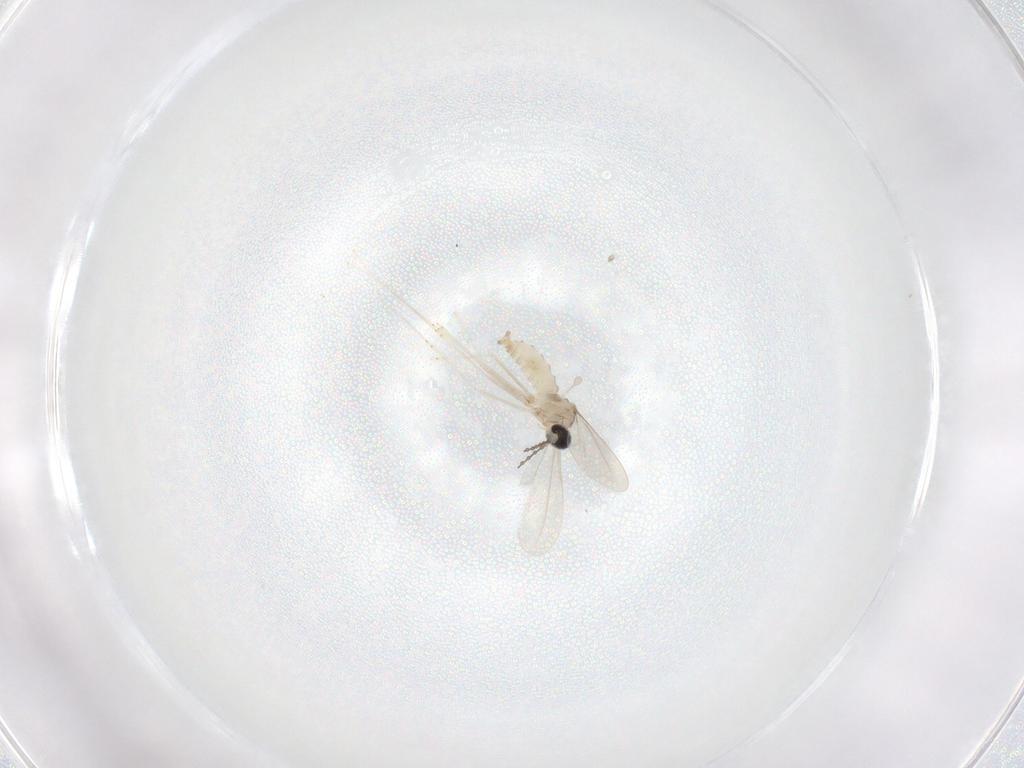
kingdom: Animalia
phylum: Arthropoda
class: Insecta
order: Diptera
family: Cecidomyiidae
